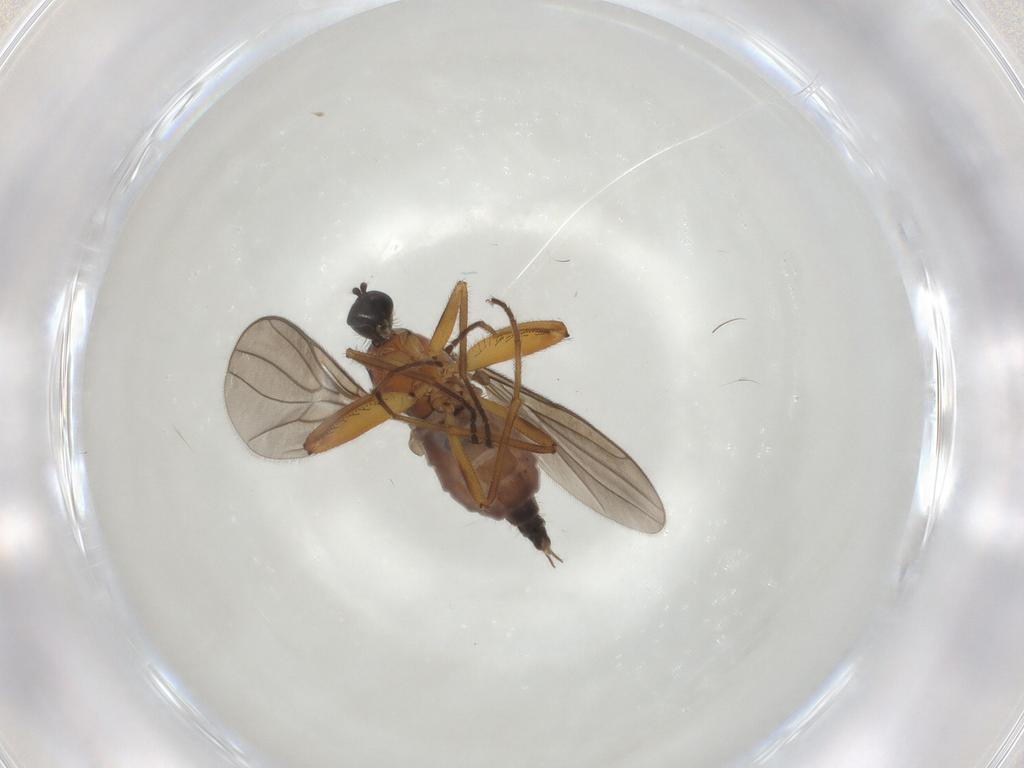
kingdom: Animalia
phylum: Arthropoda
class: Insecta
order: Diptera
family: Hybotidae
